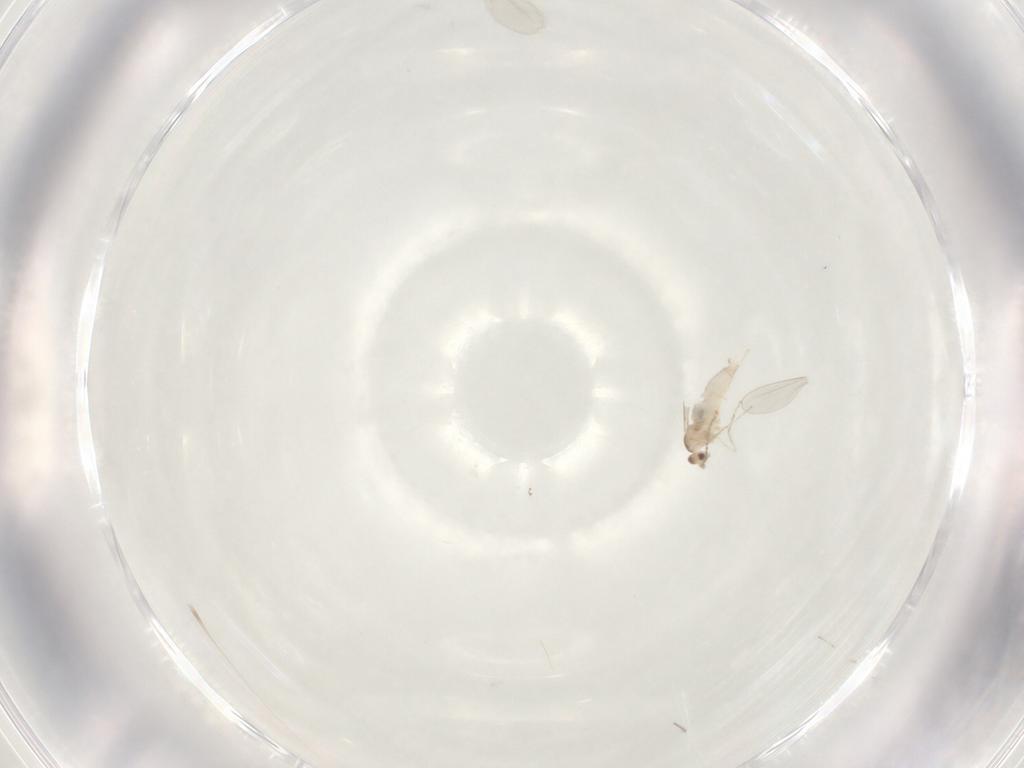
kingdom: Animalia
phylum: Arthropoda
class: Insecta
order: Diptera
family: Cecidomyiidae
